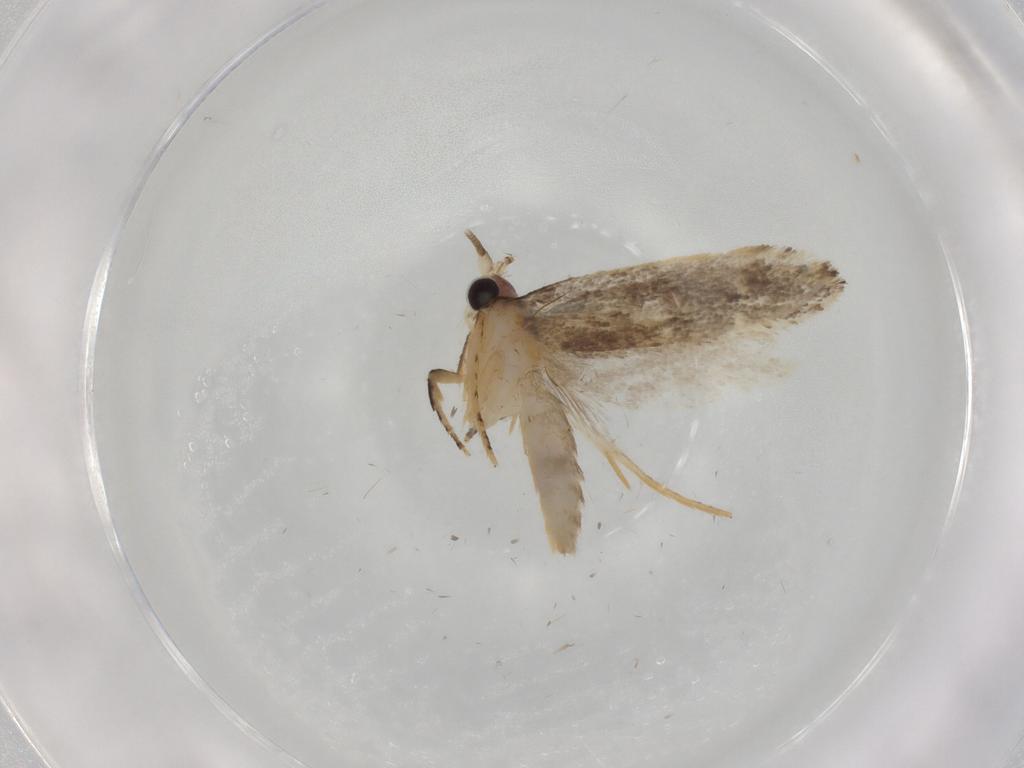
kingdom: Animalia
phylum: Arthropoda
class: Insecta
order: Lepidoptera
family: Nepticulidae
